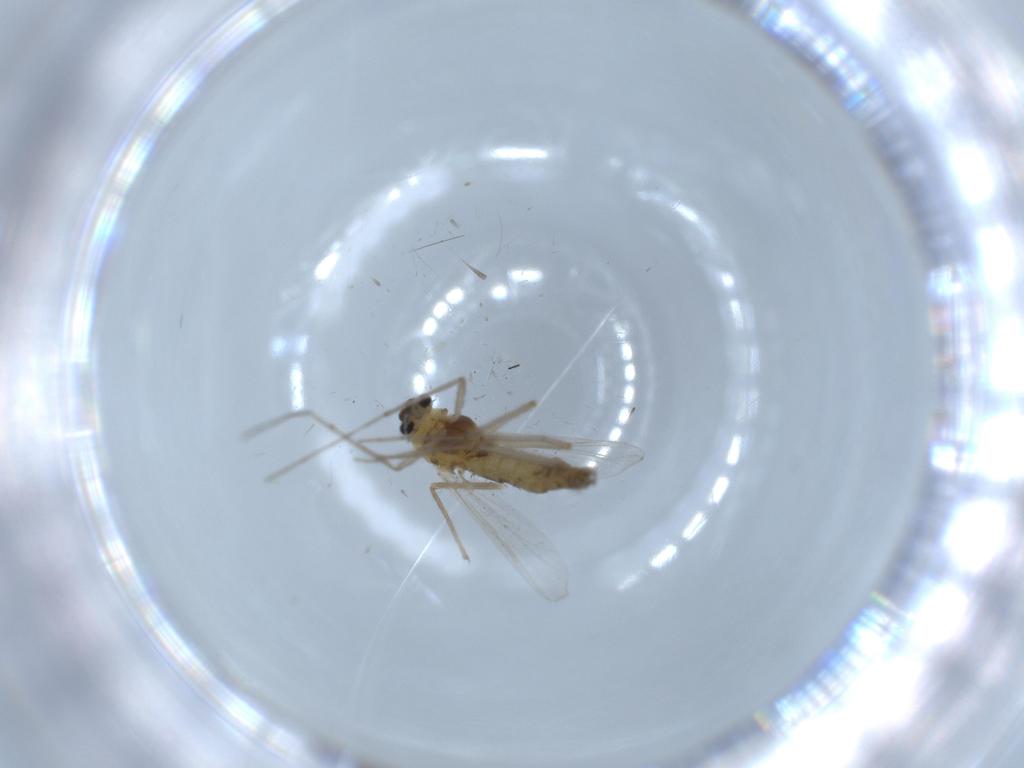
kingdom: Animalia
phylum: Arthropoda
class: Insecta
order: Diptera
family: Chironomidae
